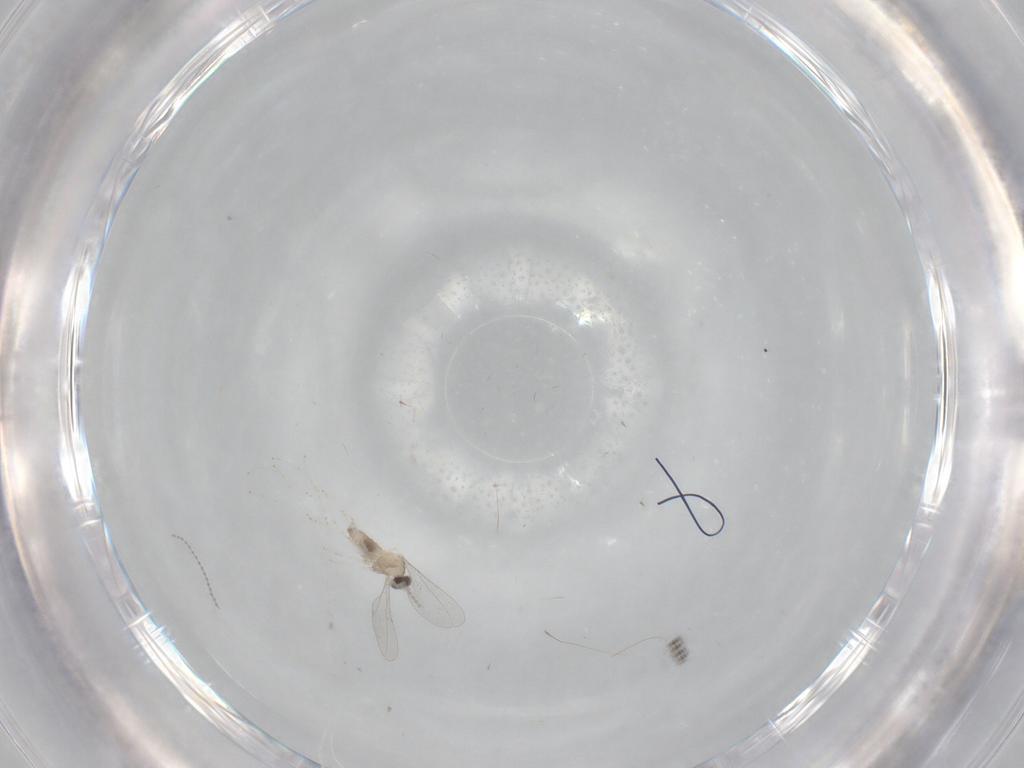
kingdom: Animalia
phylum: Arthropoda
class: Insecta
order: Diptera
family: Cecidomyiidae
